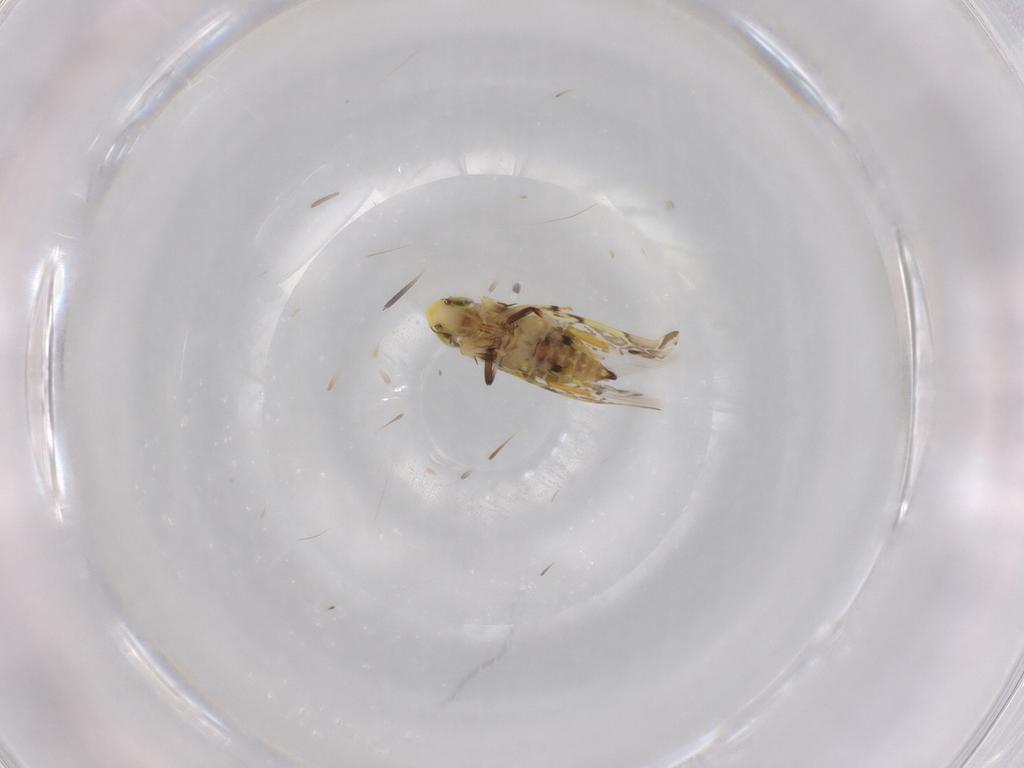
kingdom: Animalia
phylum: Arthropoda
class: Insecta
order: Hemiptera
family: Cicadellidae
